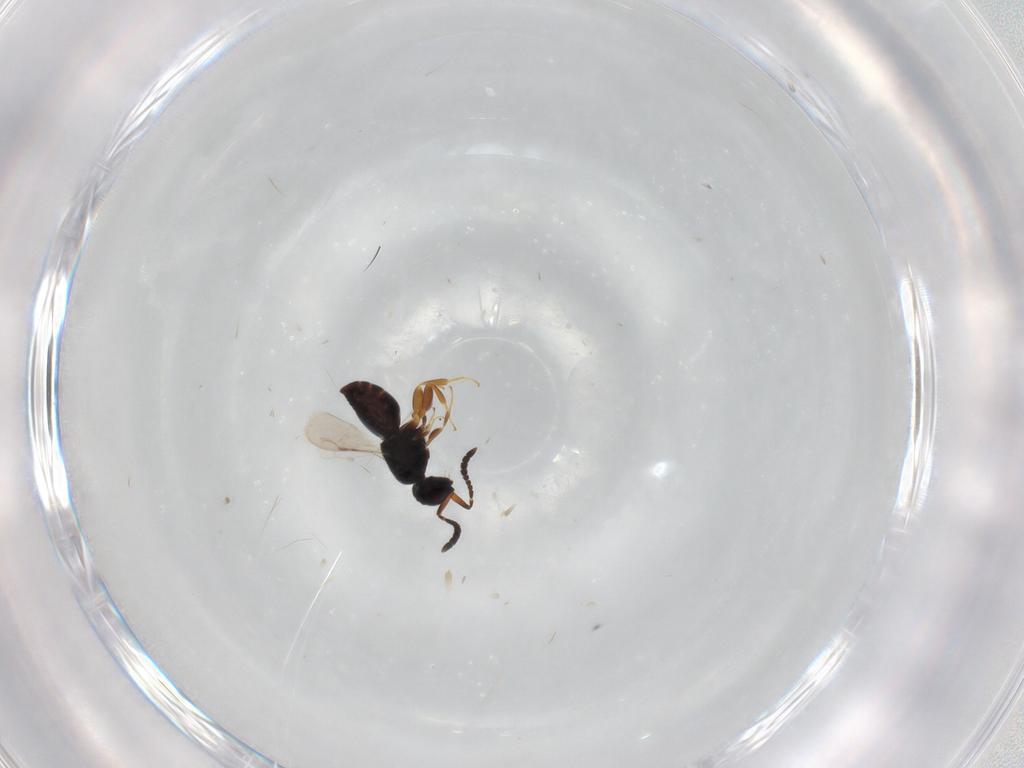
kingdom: Animalia
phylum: Arthropoda
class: Insecta
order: Hymenoptera
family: Ceraphronidae
